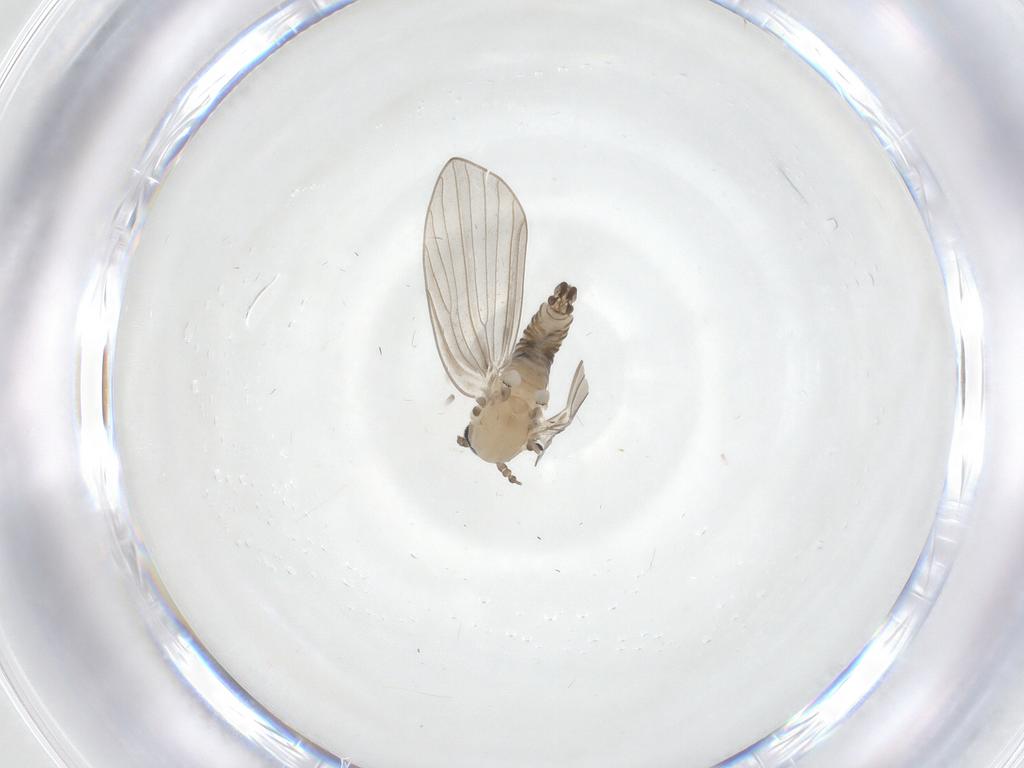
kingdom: Animalia
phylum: Arthropoda
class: Insecta
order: Diptera
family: Psychodidae
